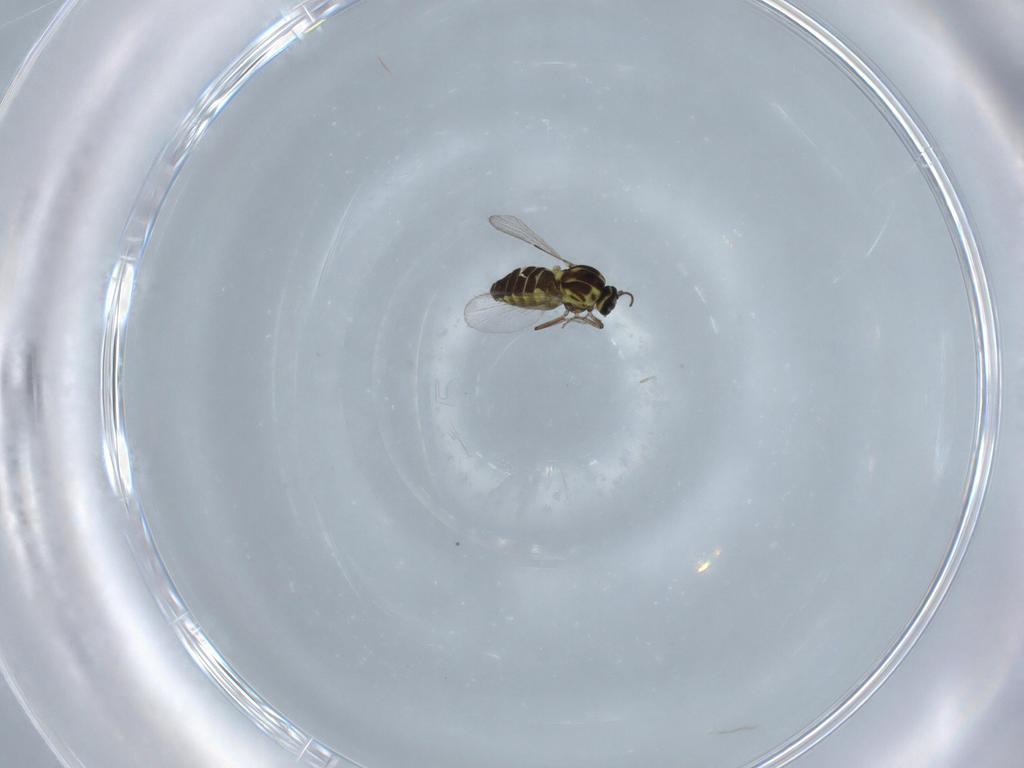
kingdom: Animalia
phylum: Arthropoda
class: Insecta
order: Diptera
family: Ceratopogonidae
